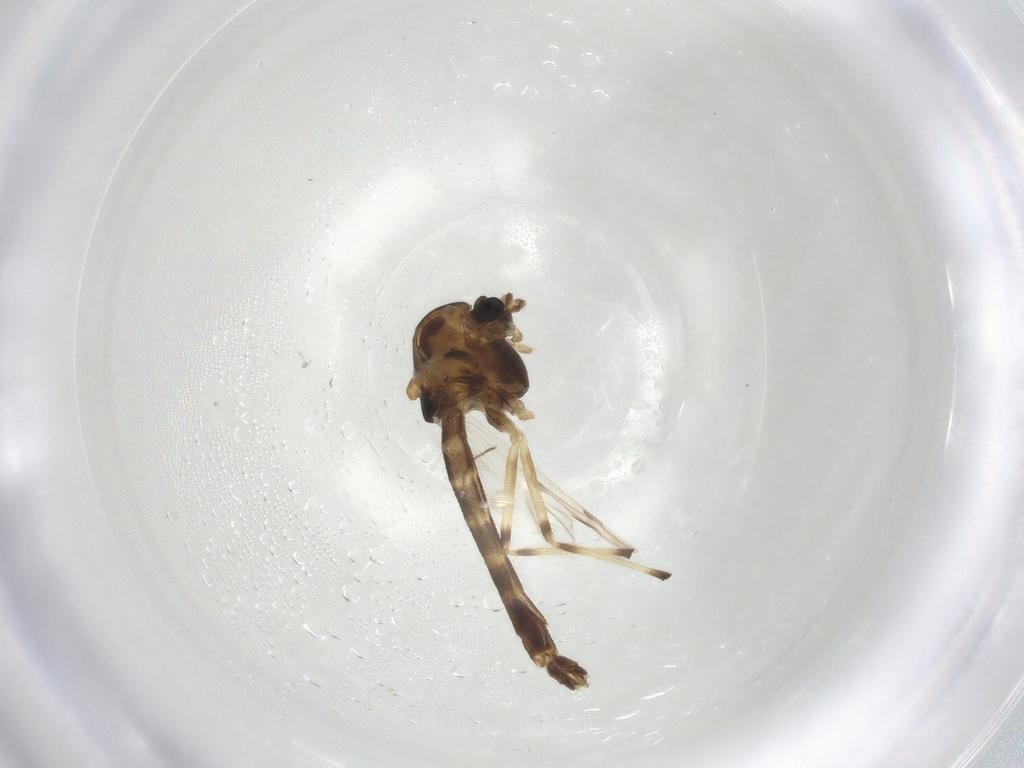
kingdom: Animalia
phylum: Arthropoda
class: Insecta
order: Diptera
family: Chironomidae
